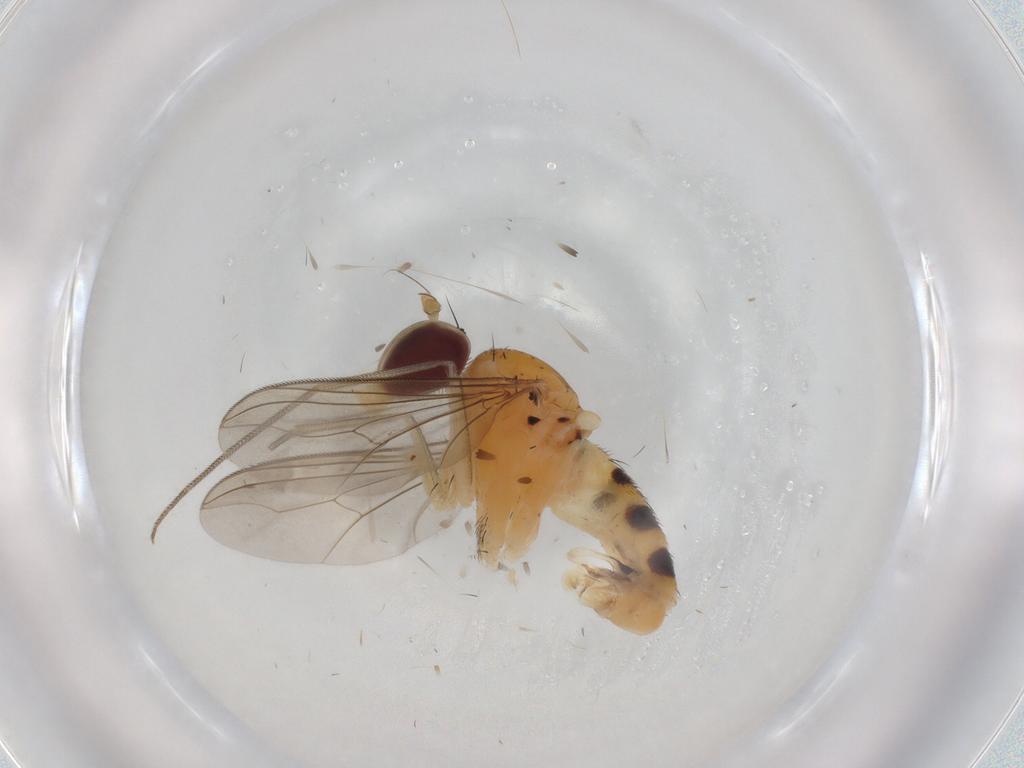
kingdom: Animalia
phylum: Arthropoda
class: Insecta
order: Diptera
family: Dolichopodidae
